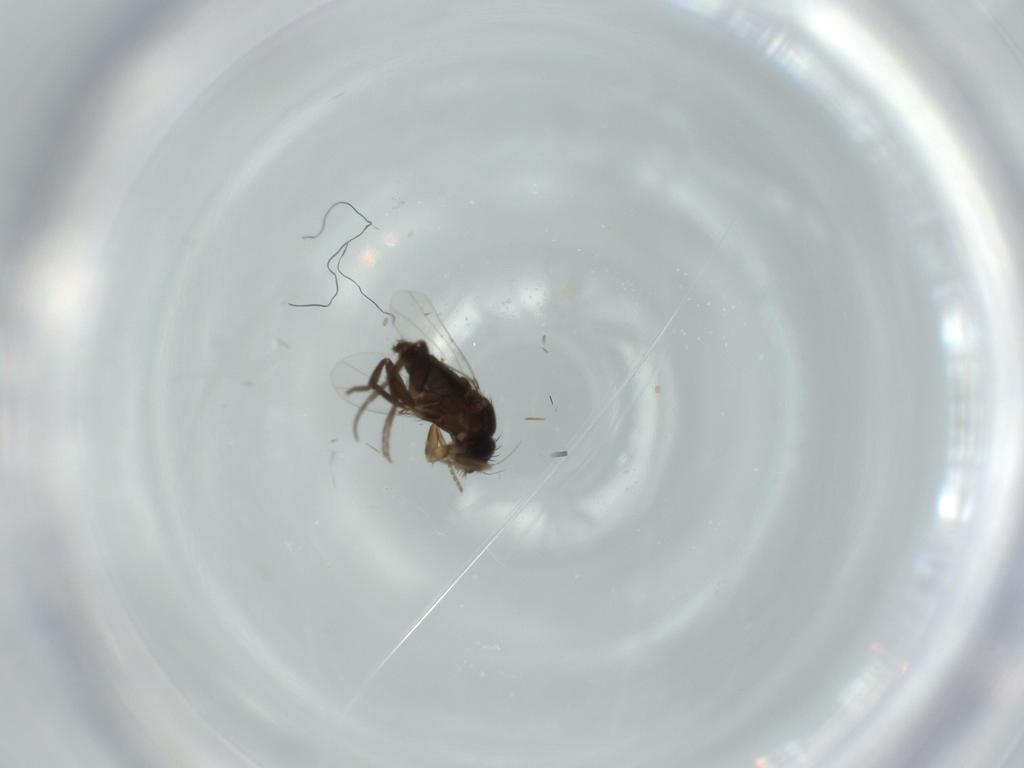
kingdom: Animalia
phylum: Arthropoda
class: Insecta
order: Diptera
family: Phoridae
